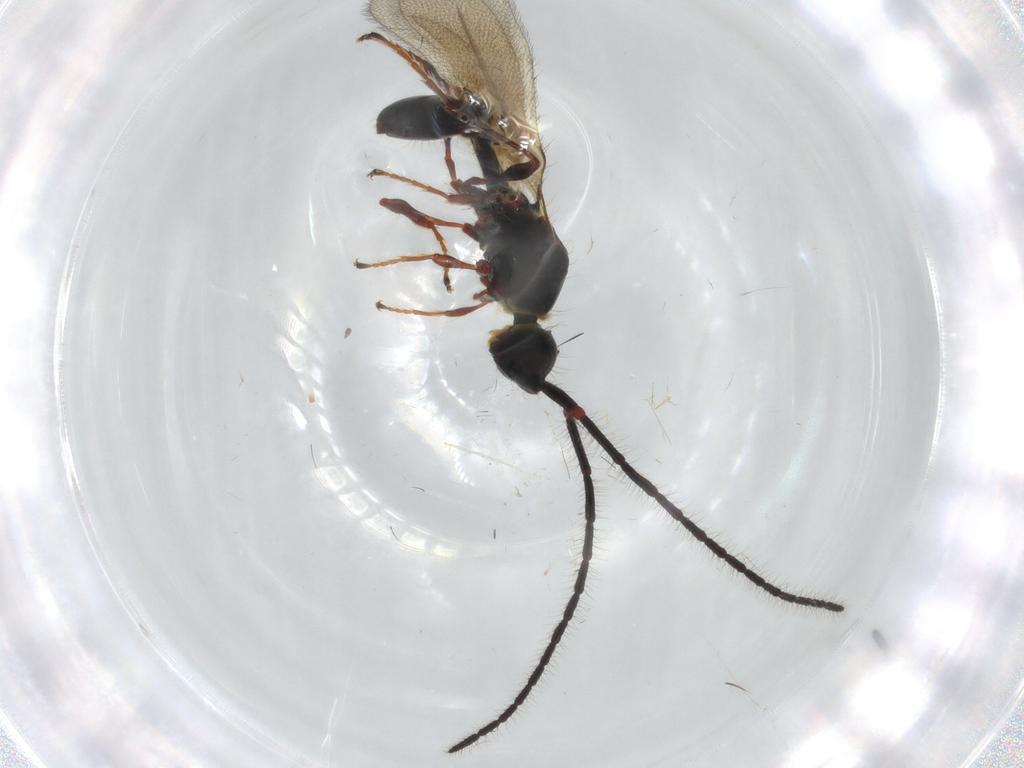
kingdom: Animalia
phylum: Arthropoda
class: Insecta
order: Hymenoptera
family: Diapriidae
